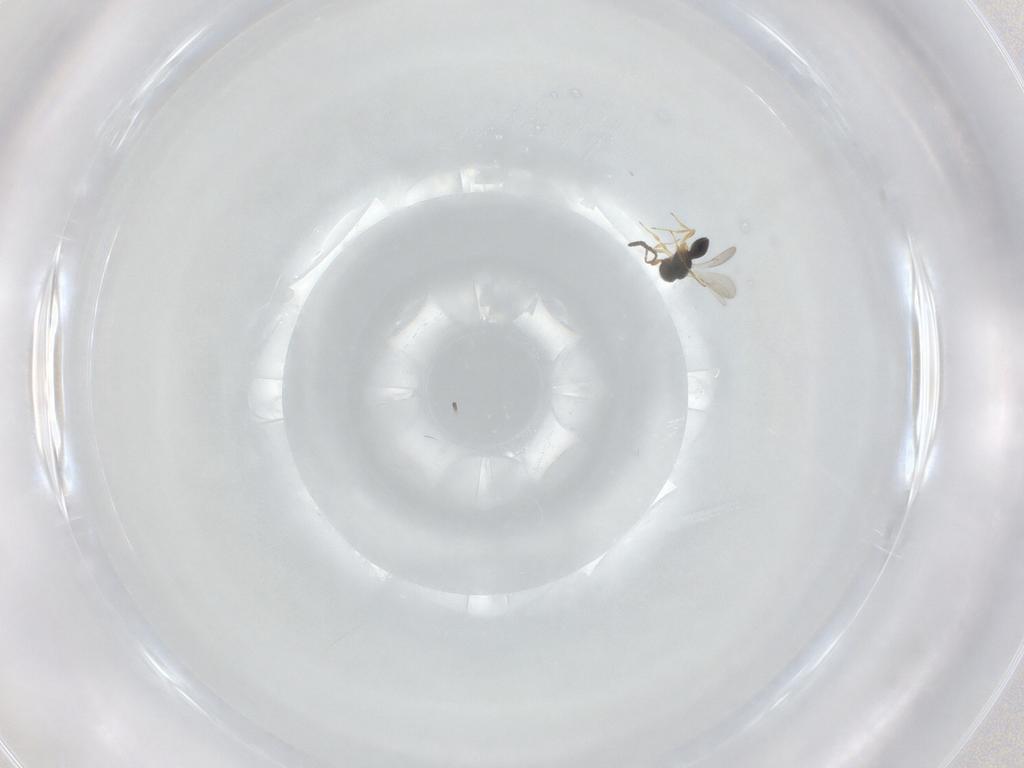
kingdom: Animalia
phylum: Arthropoda
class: Insecta
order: Hymenoptera
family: Scelionidae
